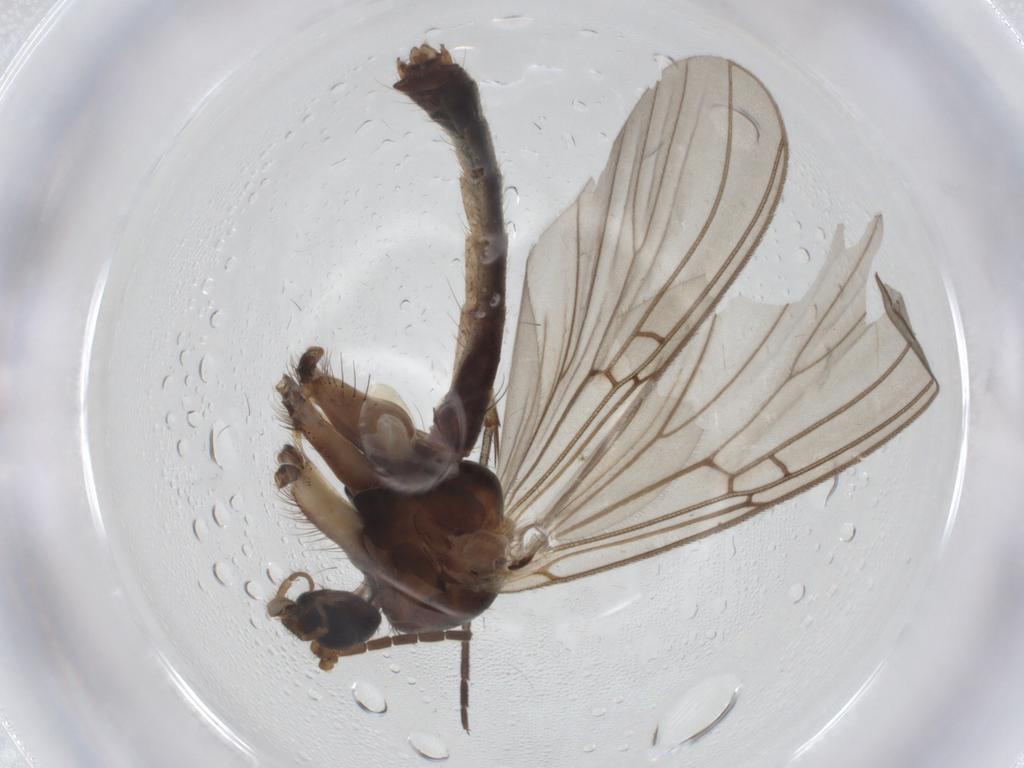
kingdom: Animalia
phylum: Arthropoda
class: Insecta
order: Diptera
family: Mycetophilidae
